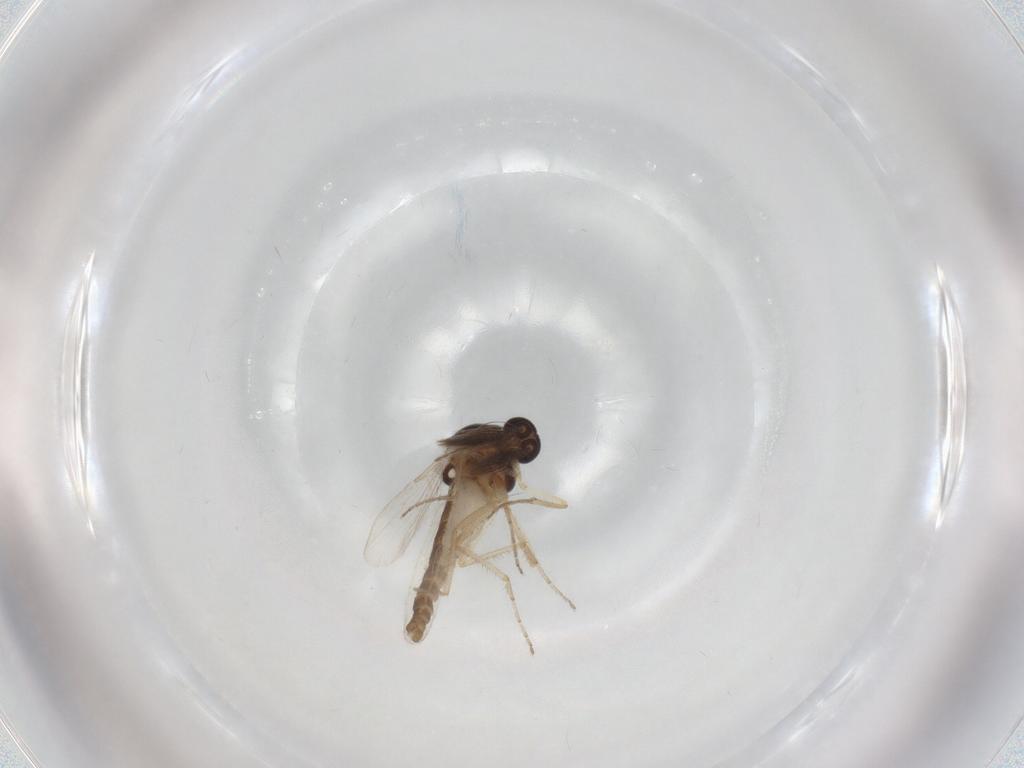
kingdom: Animalia
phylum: Arthropoda
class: Insecta
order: Diptera
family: Ceratopogonidae
